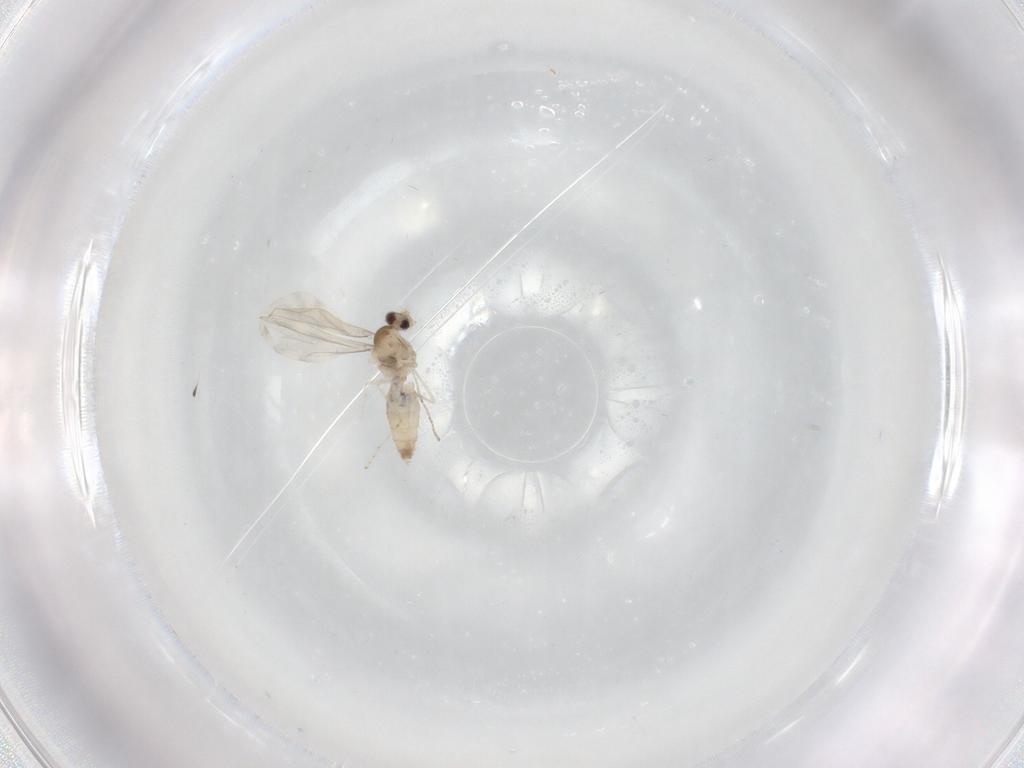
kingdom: Animalia
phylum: Arthropoda
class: Insecta
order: Diptera
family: Cecidomyiidae
